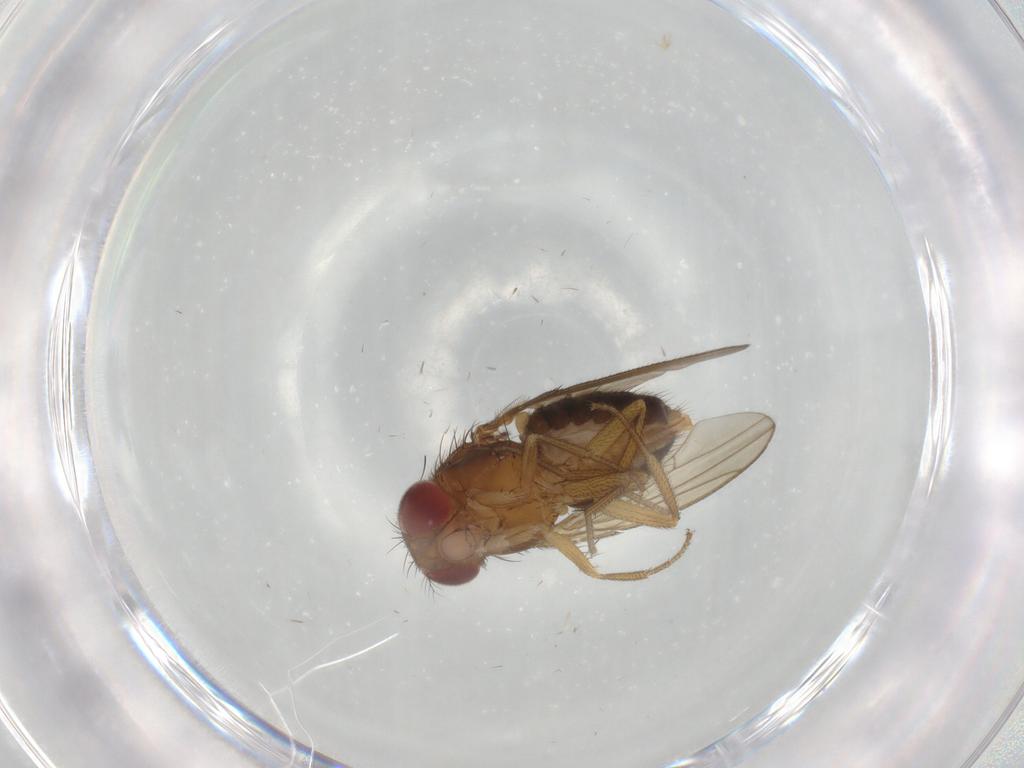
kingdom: Animalia
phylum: Arthropoda
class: Insecta
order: Diptera
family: Drosophilidae
